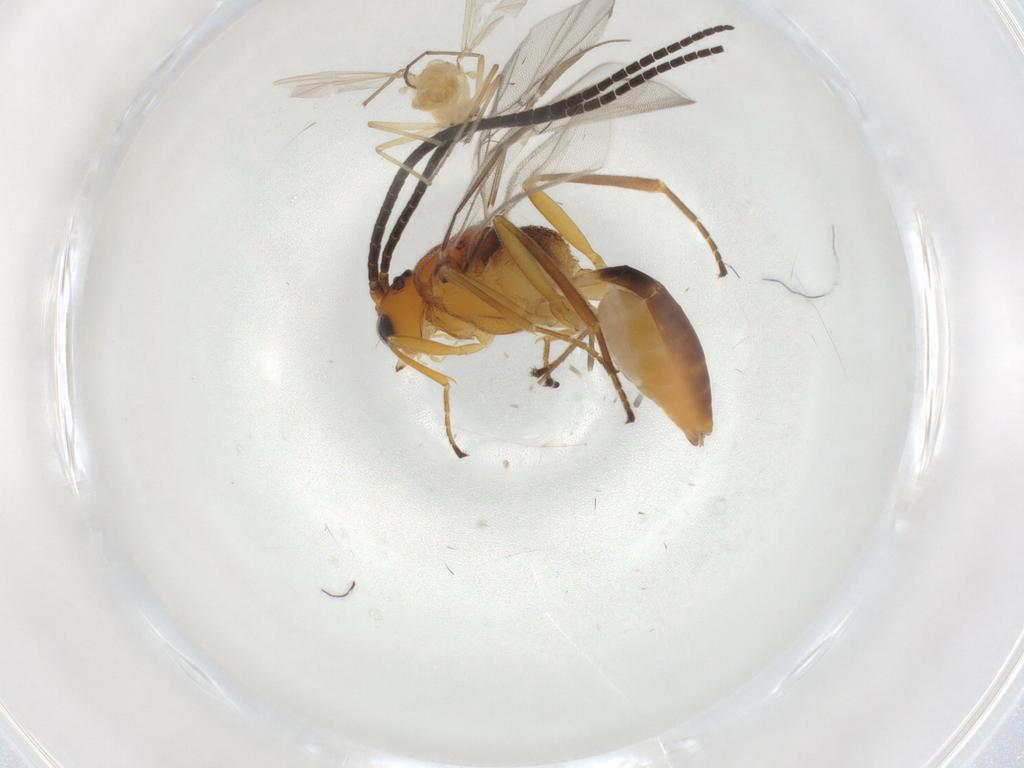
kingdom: Animalia
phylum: Arthropoda
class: Insecta
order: Diptera
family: Chironomidae
